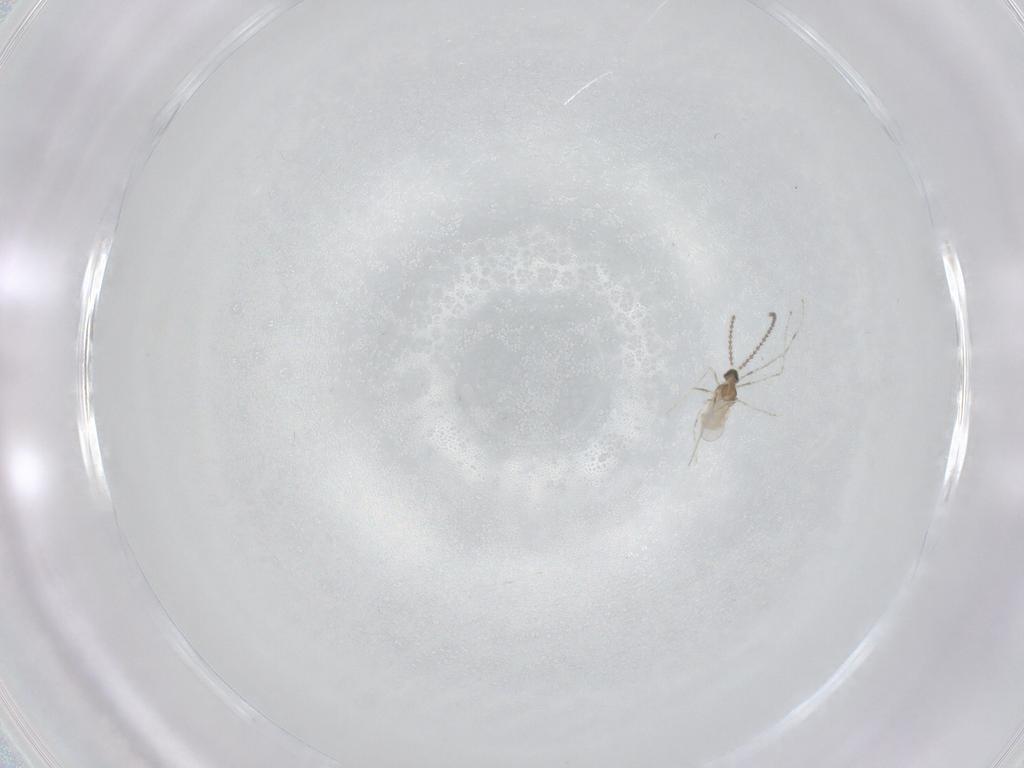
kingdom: Animalia
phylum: Arthropoda
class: Insecta
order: Diptera
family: Cecidomyiidae
